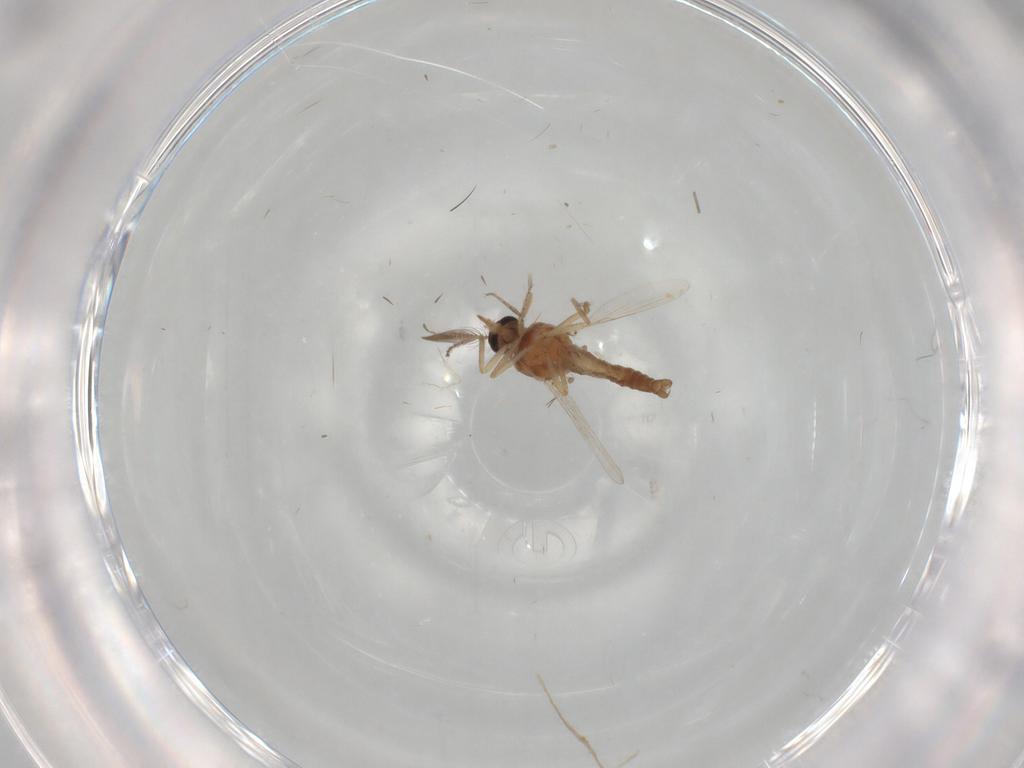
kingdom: Animalia
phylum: Arthropoda
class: Insecta
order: Diptera
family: Ceratopogonidae
